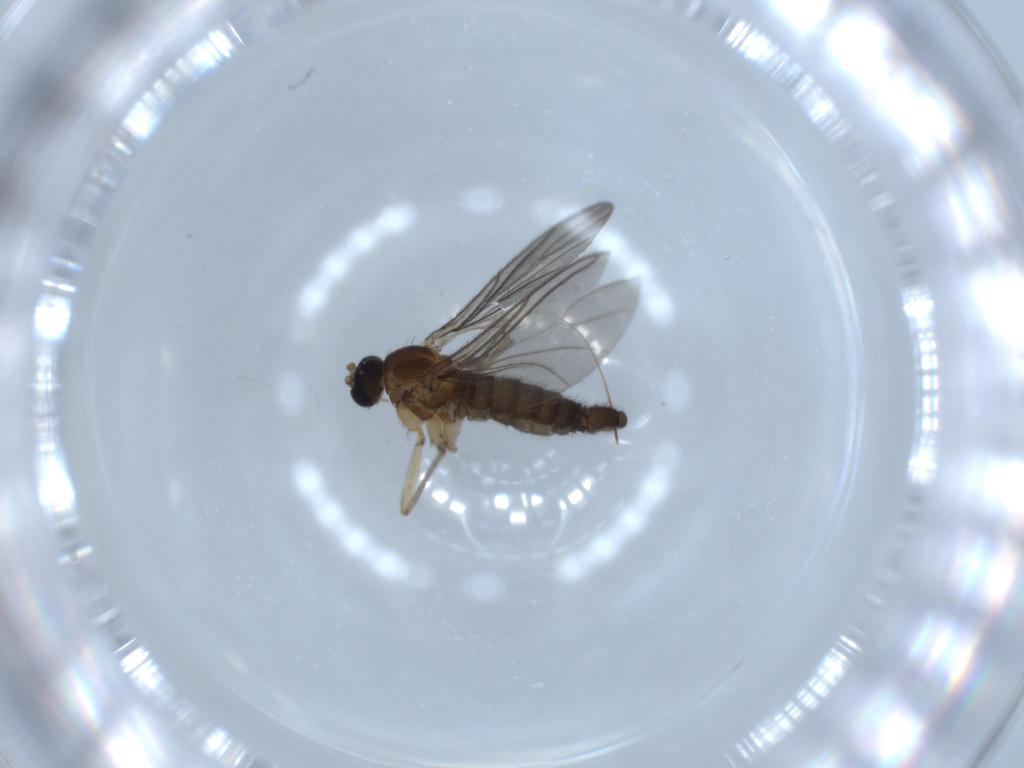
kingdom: Animalia
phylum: Arthropoda
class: Insecta
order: Diptera
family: Sciaridae
